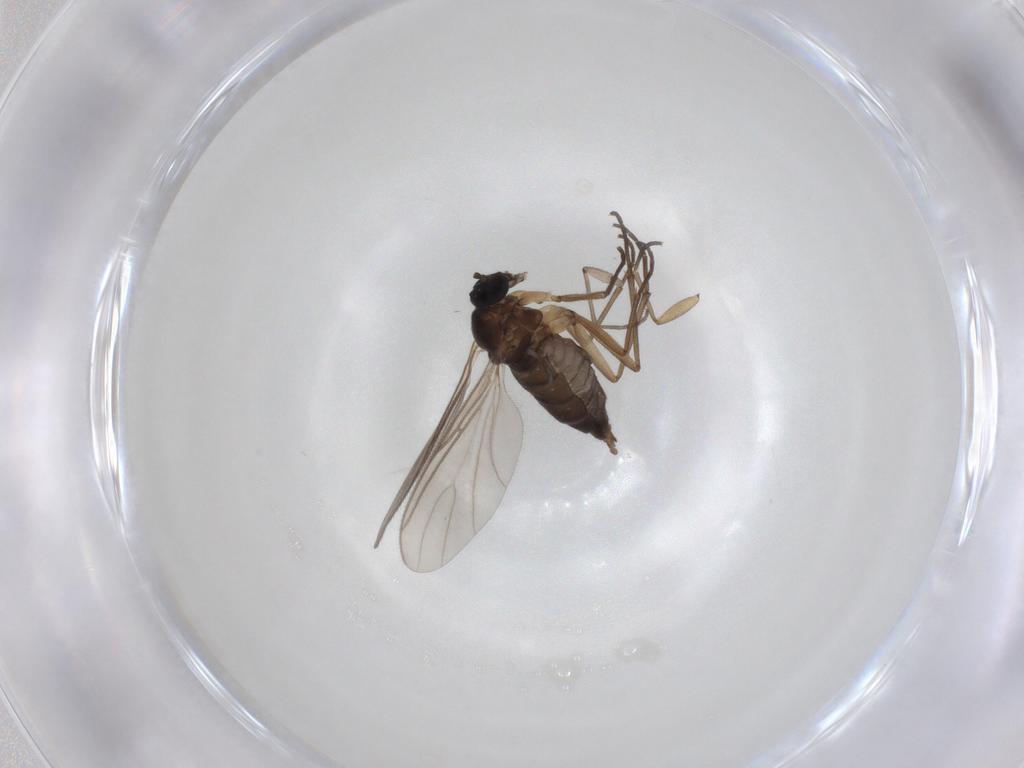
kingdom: Animalia
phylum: Arthropoda
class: Insecta
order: Diptera
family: Sciaridae
